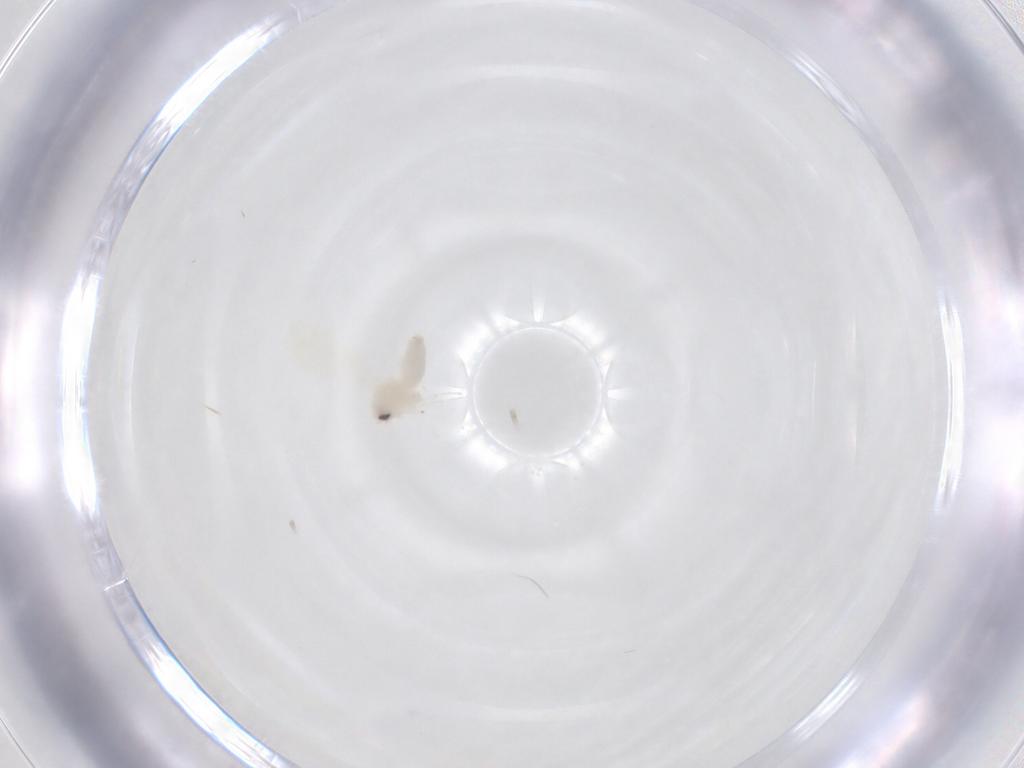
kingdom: Animalia
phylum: Arthropoda
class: Insecta
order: Hemiptera
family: Aleyrodidae
